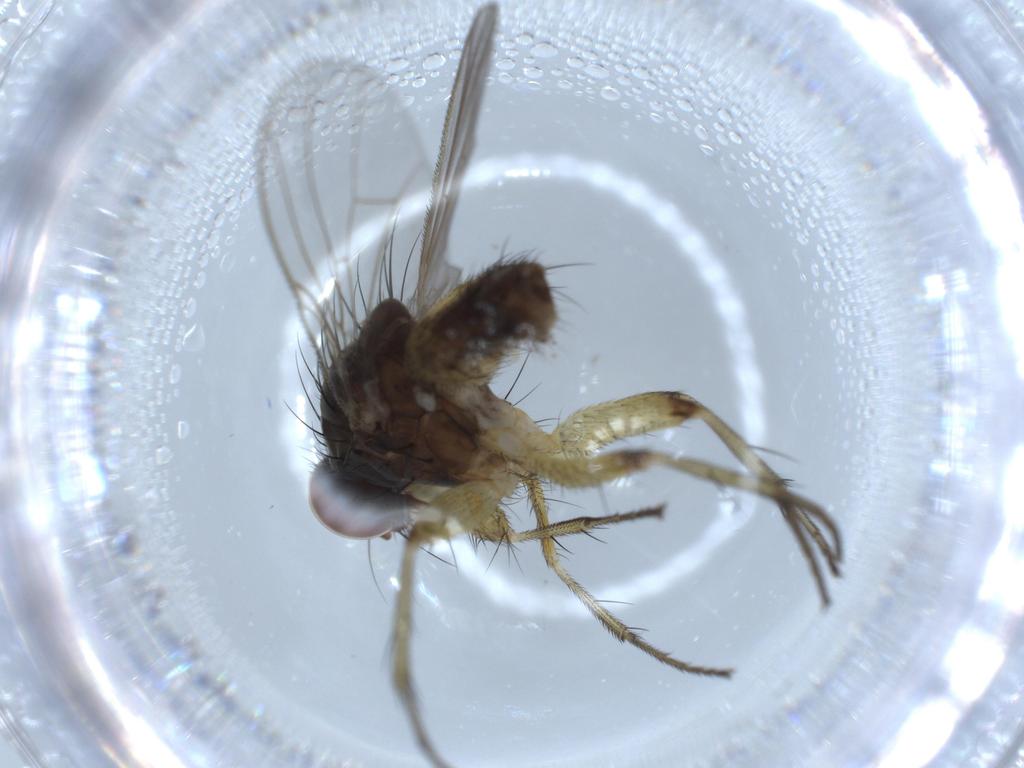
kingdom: Animalia
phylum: Arthropoda
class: Insecta
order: Diptera
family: Muscidae
